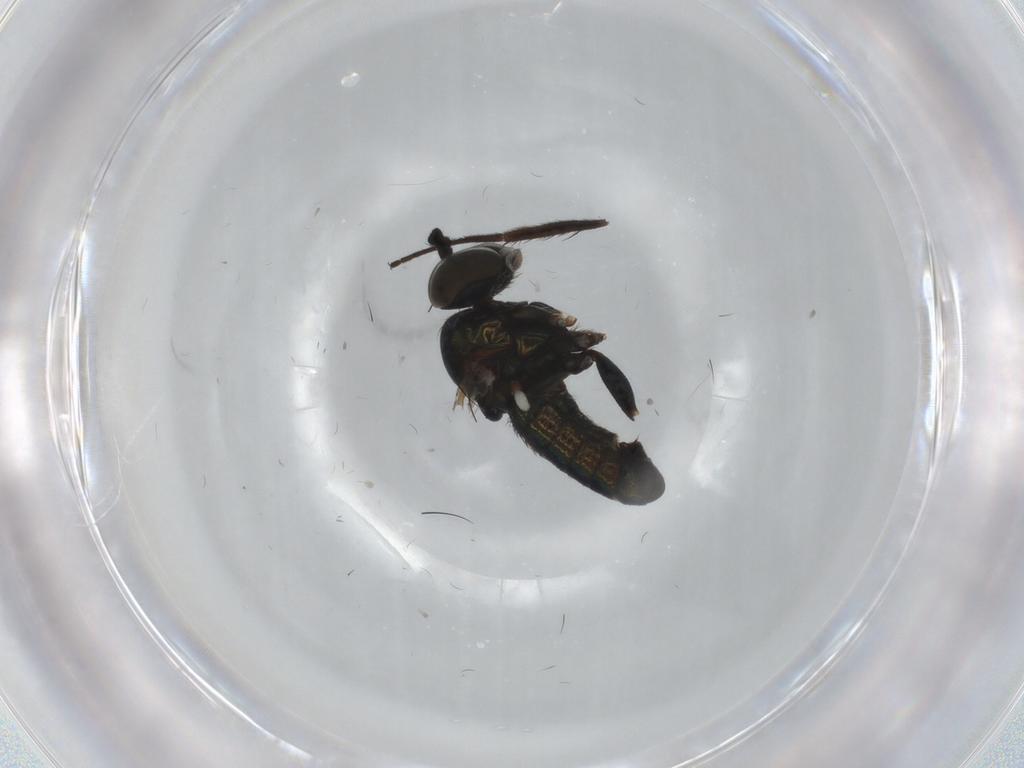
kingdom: Animalia
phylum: Arthropoda
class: Insecta
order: Diptera
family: Dolichopodidae
